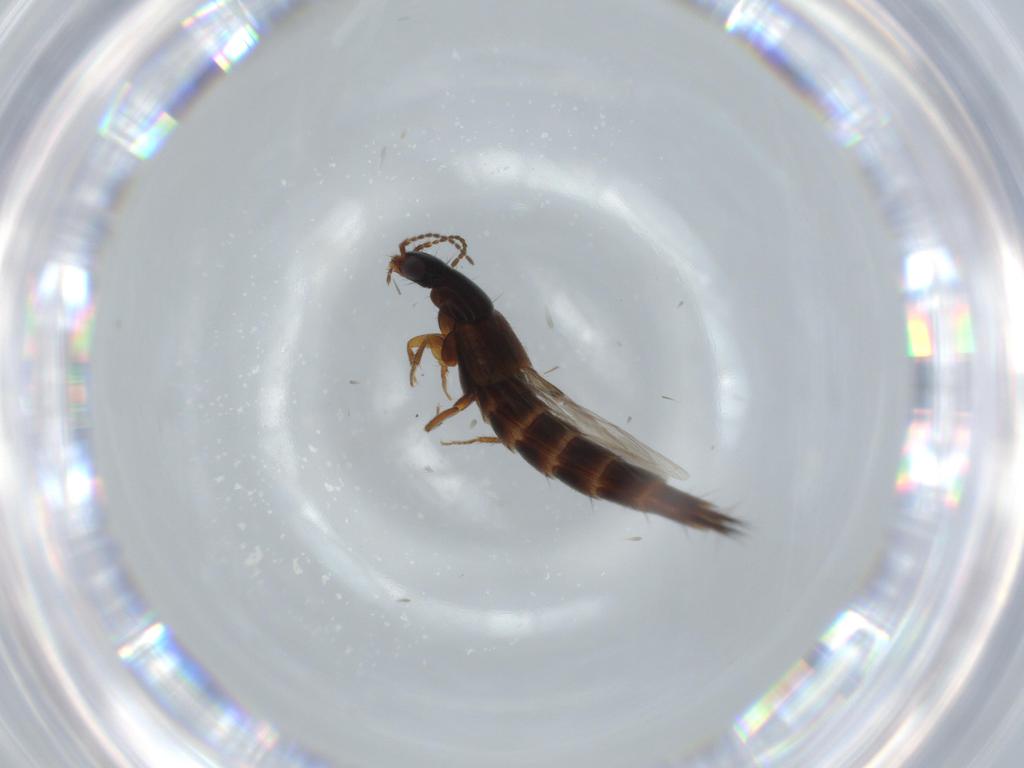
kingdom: Animalia
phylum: Arthropoda
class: Insecta
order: Coleoptera
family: Staphylinidae
